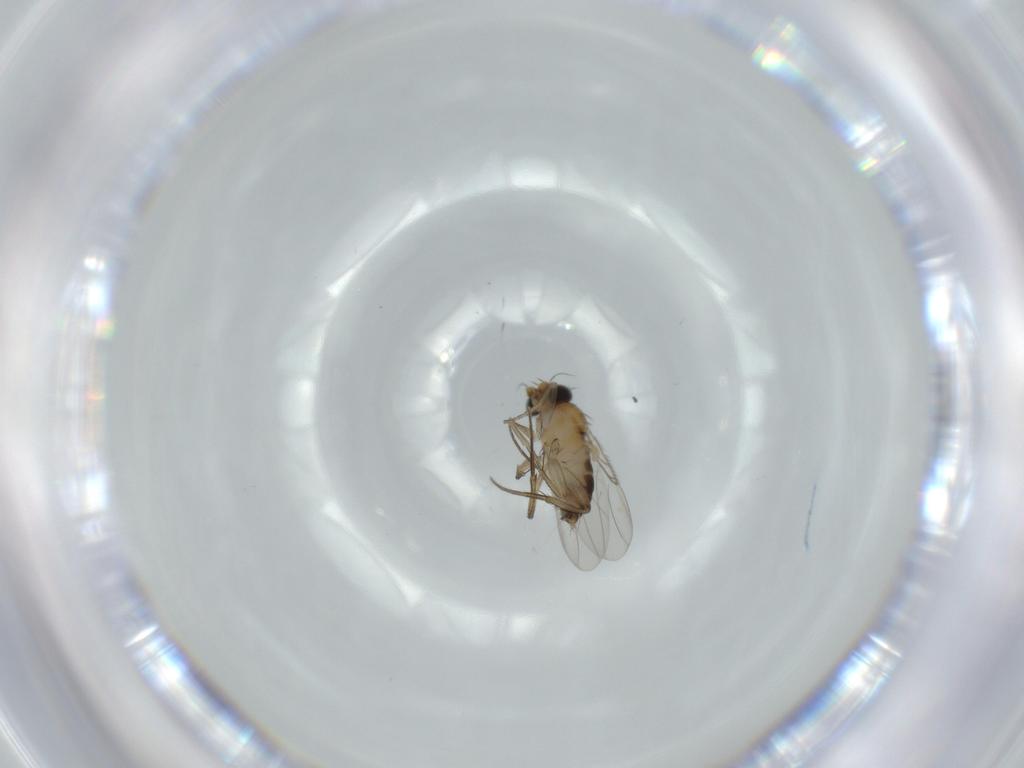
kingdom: Animalia
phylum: Arthropoda
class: Insecta
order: Diptera
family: Phoridae
